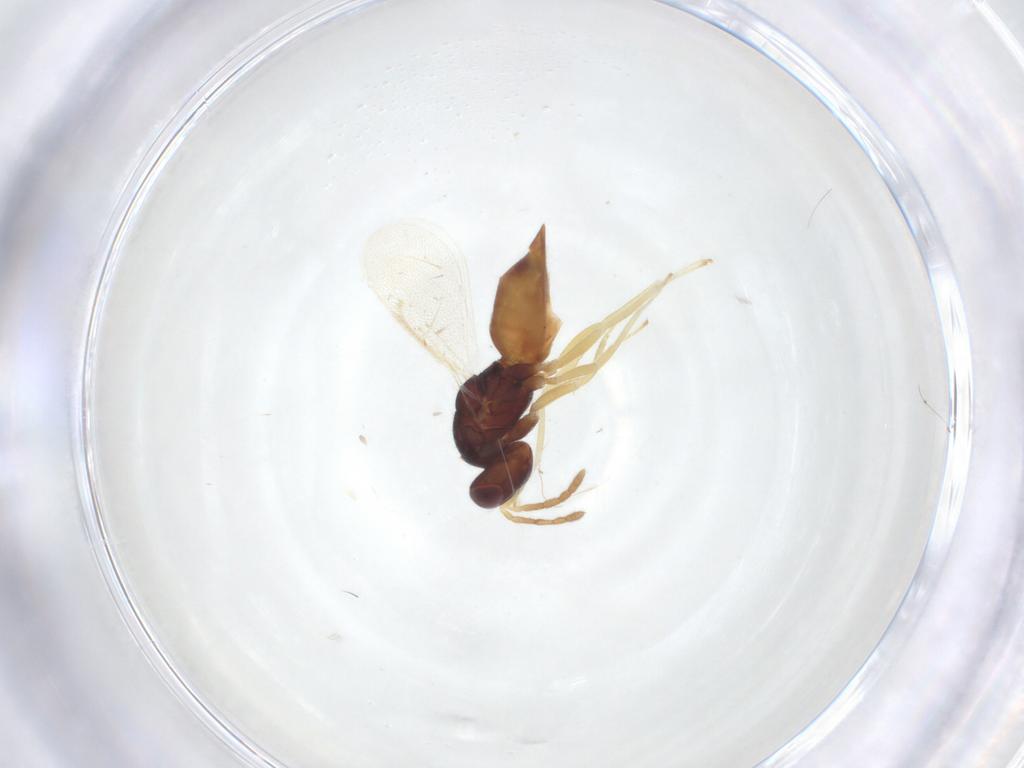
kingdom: Animalia
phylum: Arthropoda
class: Insecta
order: Hymenoptera
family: Eulophidae
